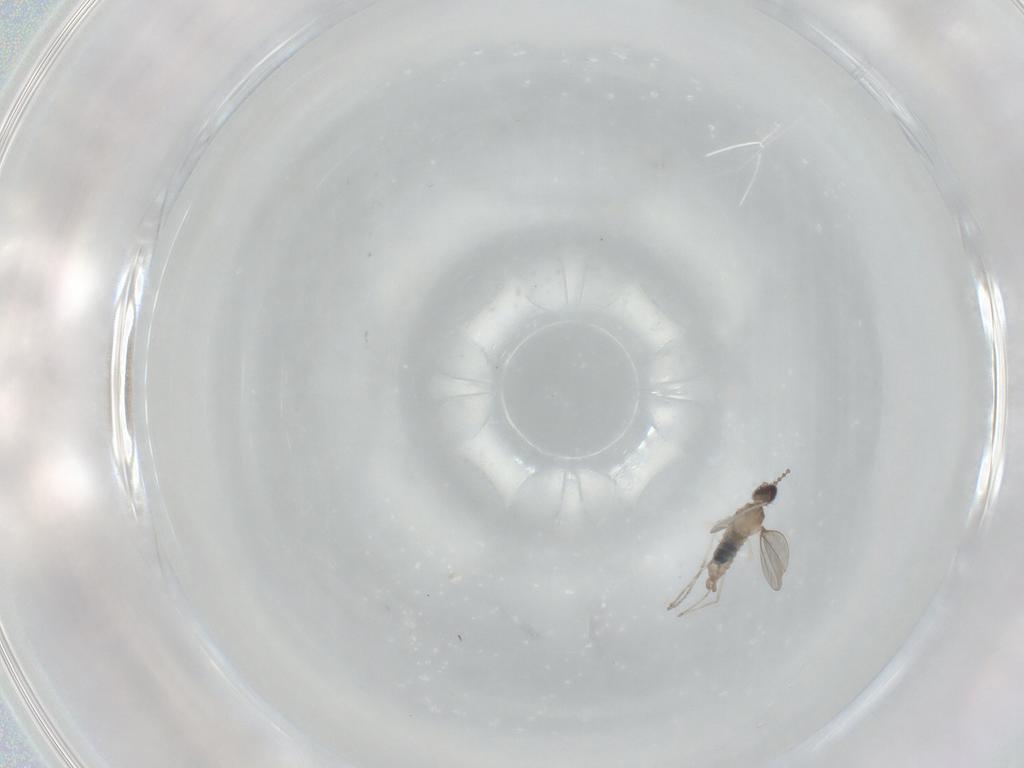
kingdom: Animalia
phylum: Arthropoda
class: Insecta
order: Diptera
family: Cecidomyiidae
